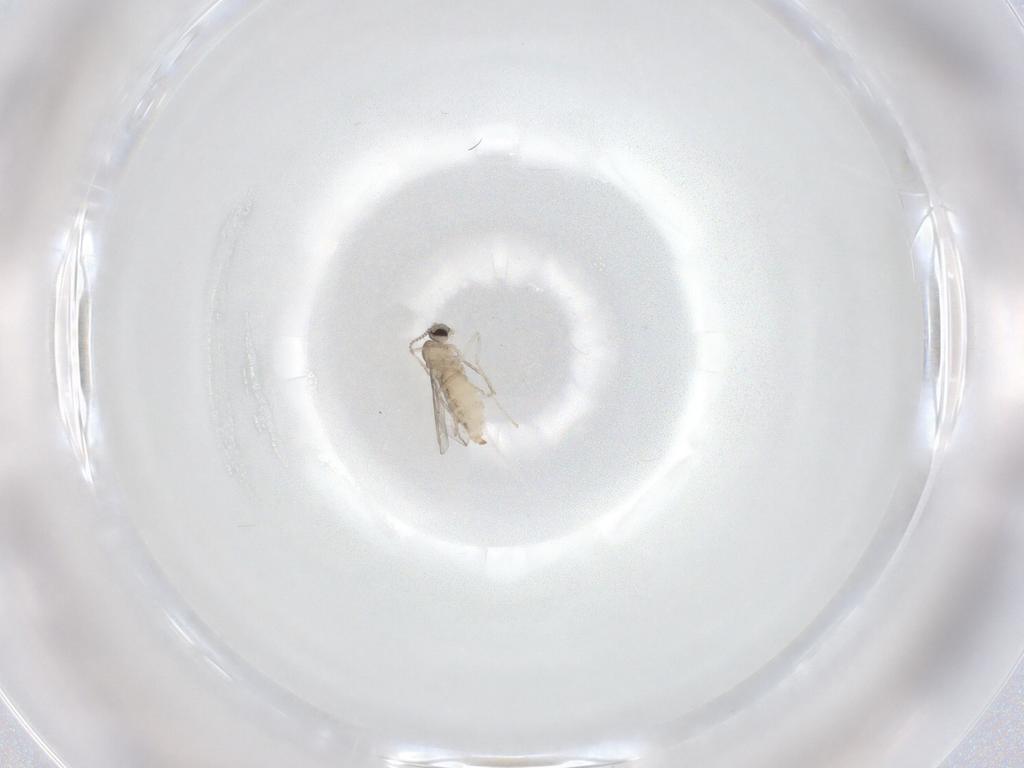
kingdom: Animalia
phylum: Arthropoda
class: Insecta
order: Diptera
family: Cecidomyiidae
